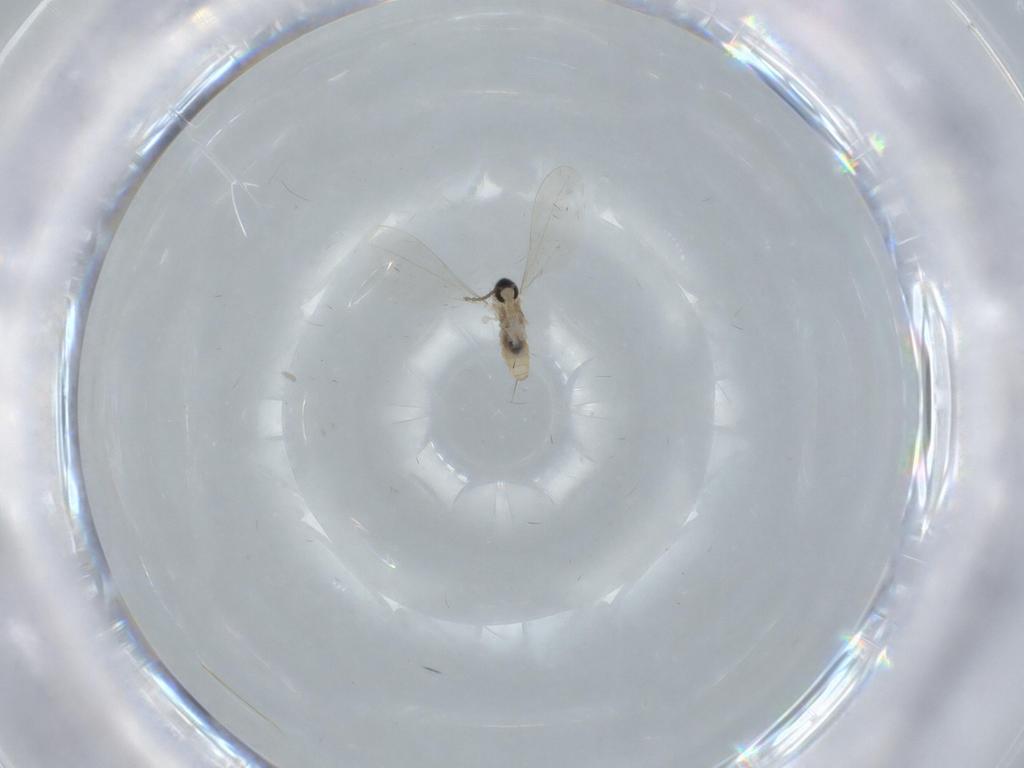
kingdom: Animalia
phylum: Arthropoda
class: Insecta
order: Diptera
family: Cecidomyiidae
